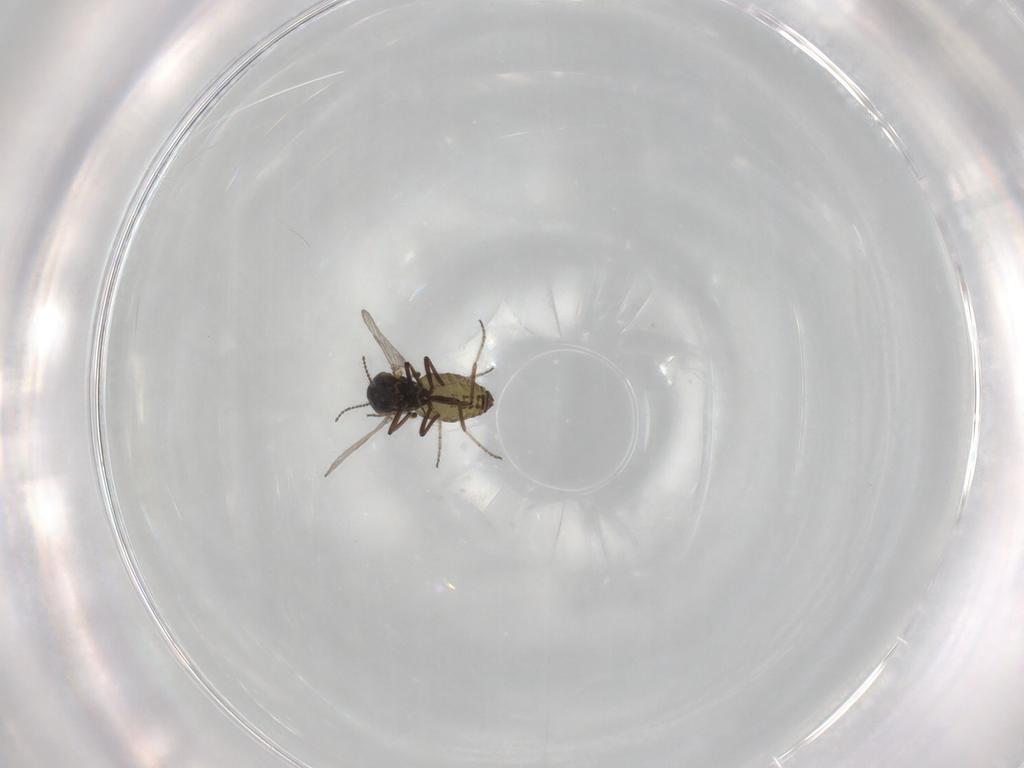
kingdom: Animalia
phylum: Arthropoda
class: Insecta
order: Diptera
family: Ceratopogonidae
